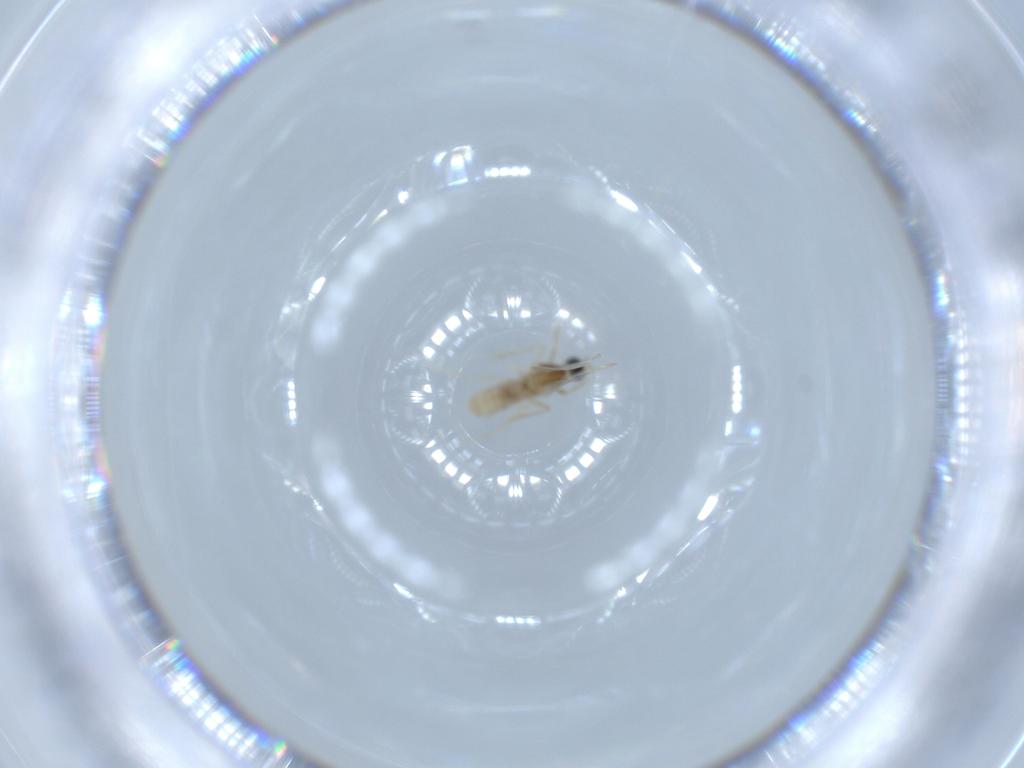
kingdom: Animalia
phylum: Arthropoda
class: Insecta
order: Diptera
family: Cecidomyiidae
